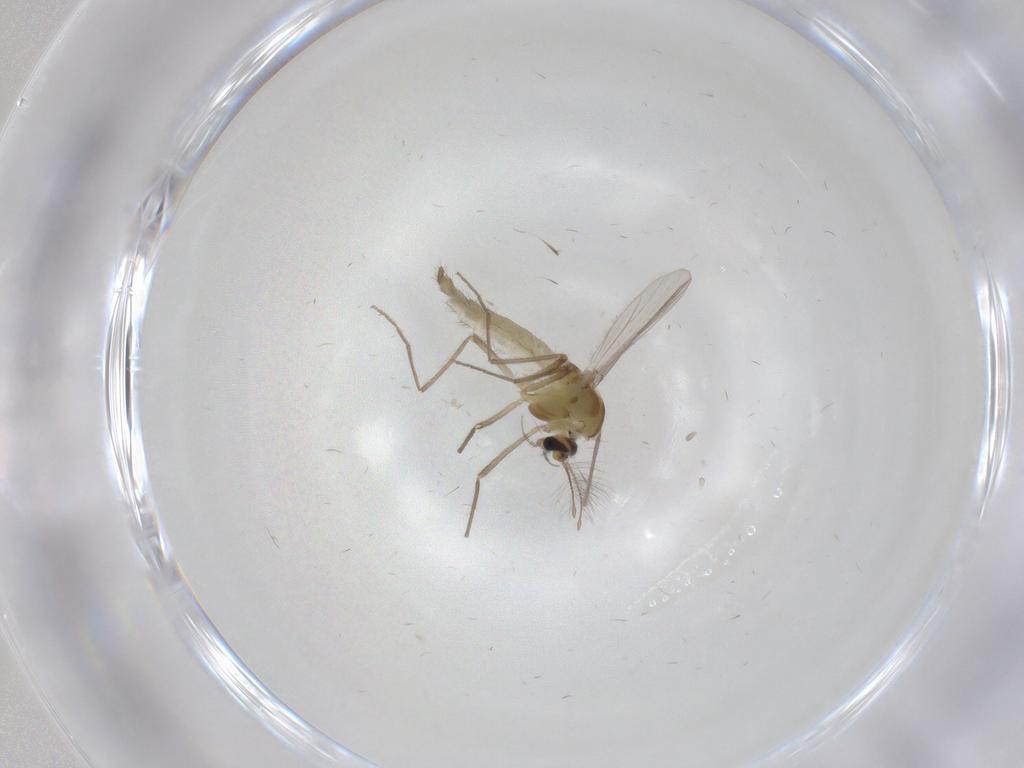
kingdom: Animalia
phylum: Arthropoda
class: Insecta
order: Diptera
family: Chironomidae
